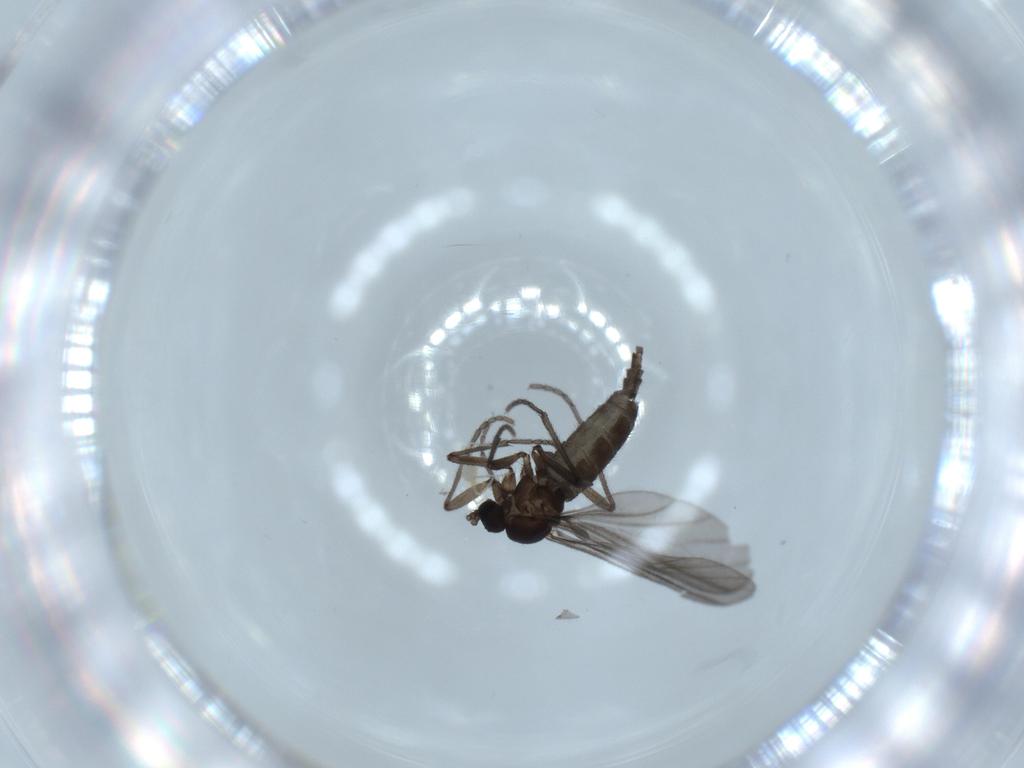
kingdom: Animalia
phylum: Arthropoda
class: Insecta
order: Diptera
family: Sciaridae
